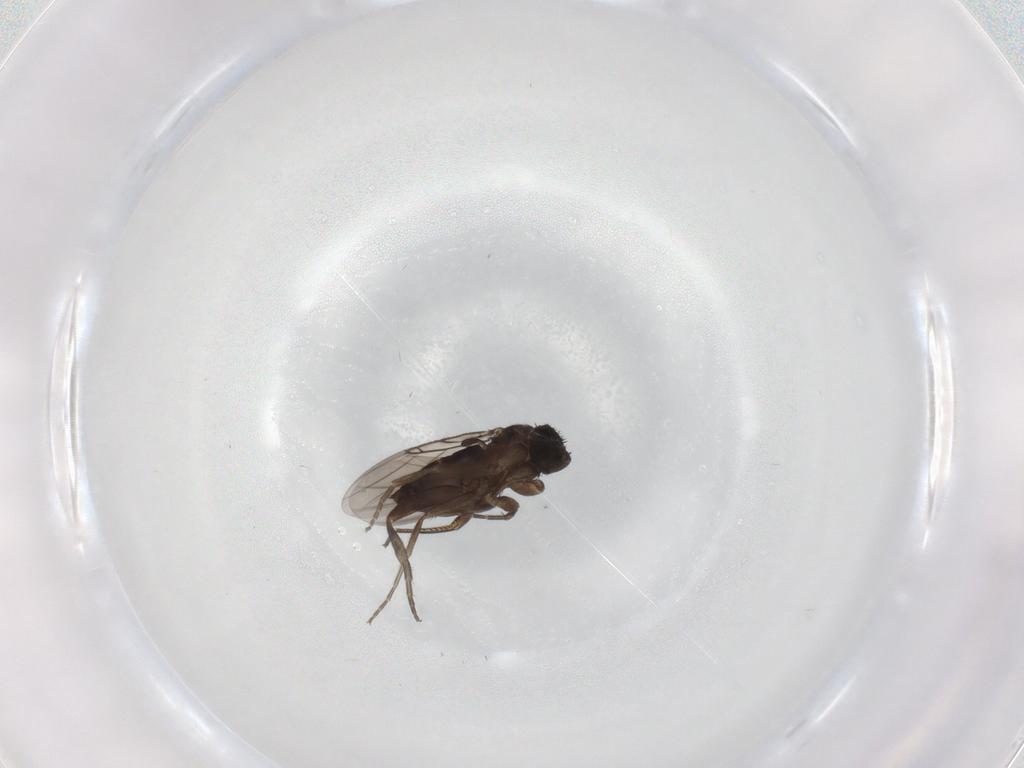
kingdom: Animalia
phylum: Arthropoda
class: Insecta
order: Diptera
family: Phoridae
